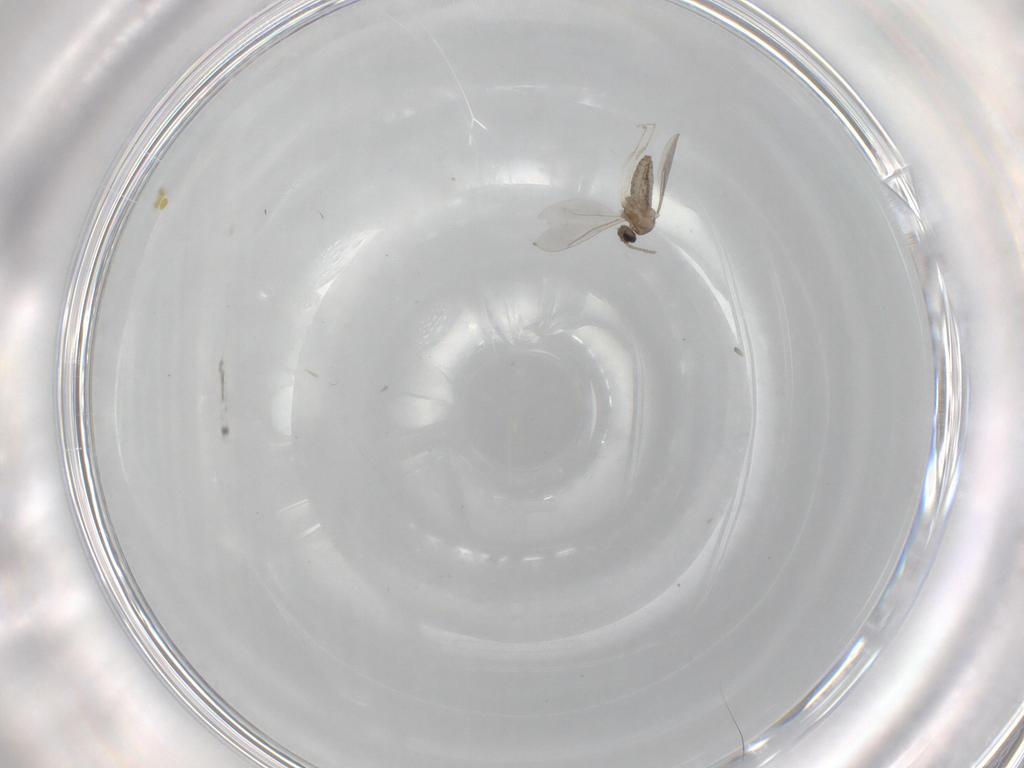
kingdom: Animalia
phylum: Arthropoda
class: Insecta
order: Diptera
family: Cecidomyiidae
